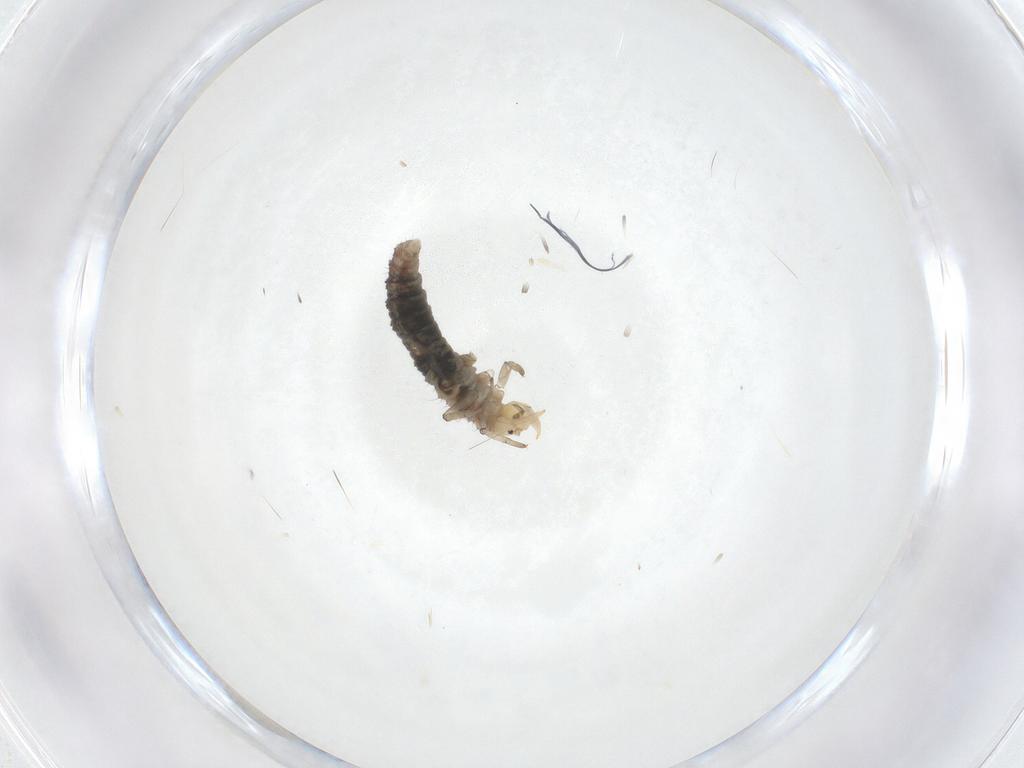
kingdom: Animalia
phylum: Arthropoda
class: Insecta
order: Neuroptera
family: Hemerobiidae
